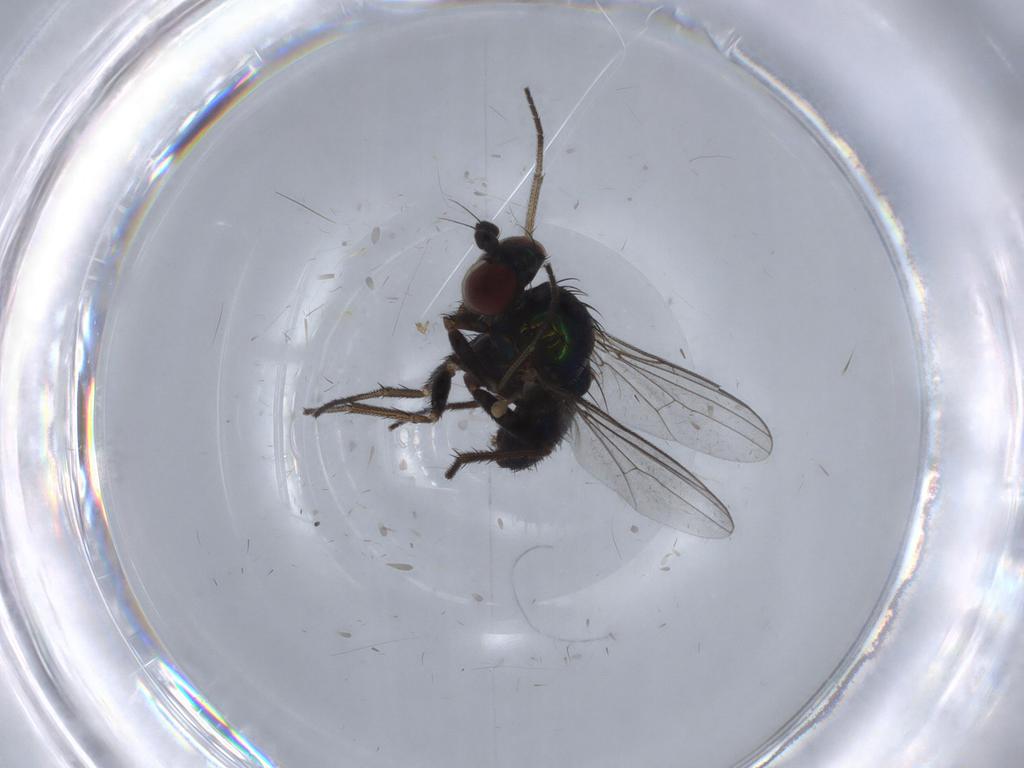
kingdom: Animalia
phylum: Arthropoda
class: Insecta
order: Diptera
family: Dolichopodidae
